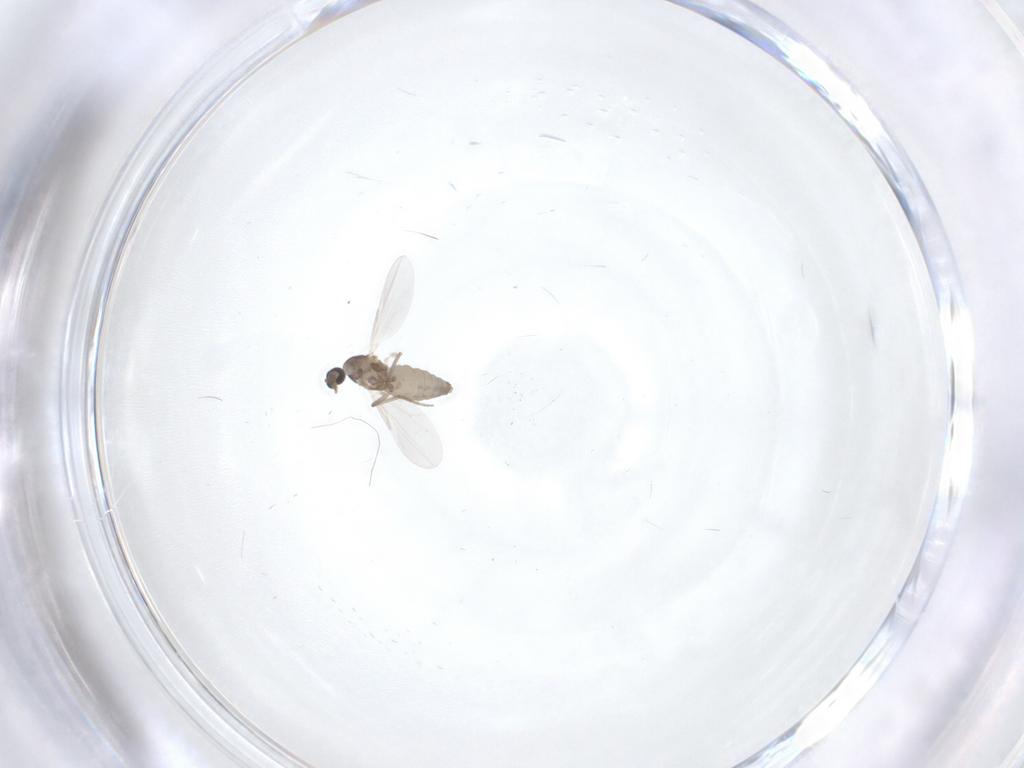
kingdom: Animalia
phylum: Arthropoda
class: Insecta
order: Diptera
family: Ceratopogonidae
